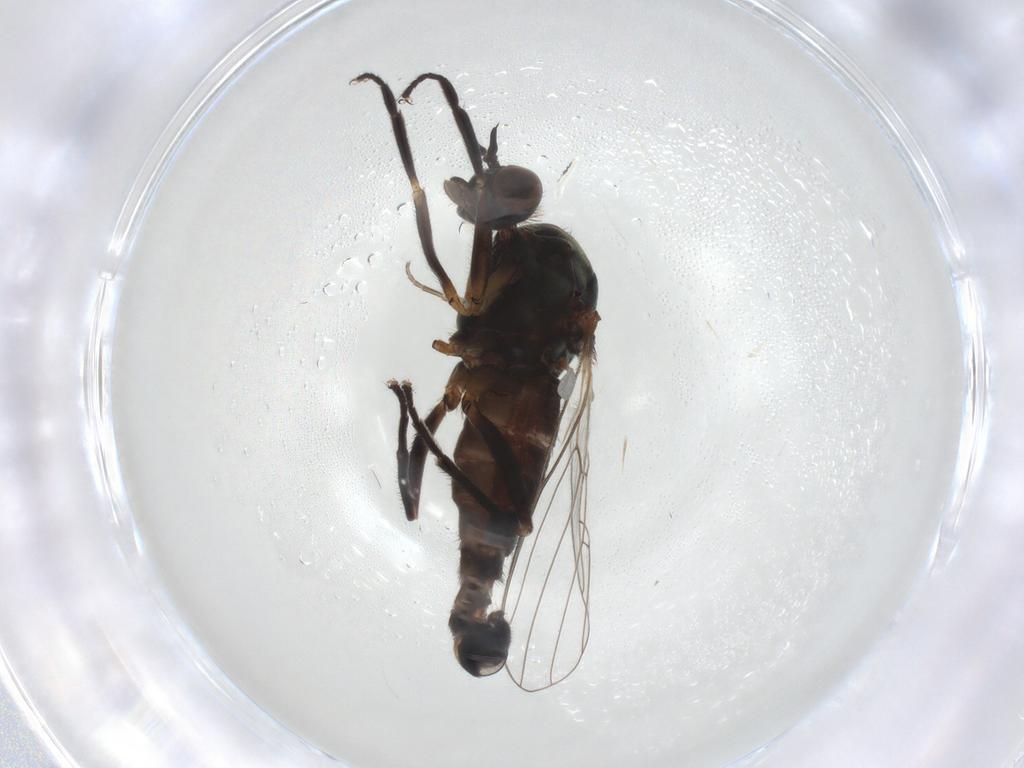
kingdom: Animalia
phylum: Arthropoda
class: Insecta
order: Diptera
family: Empididae
